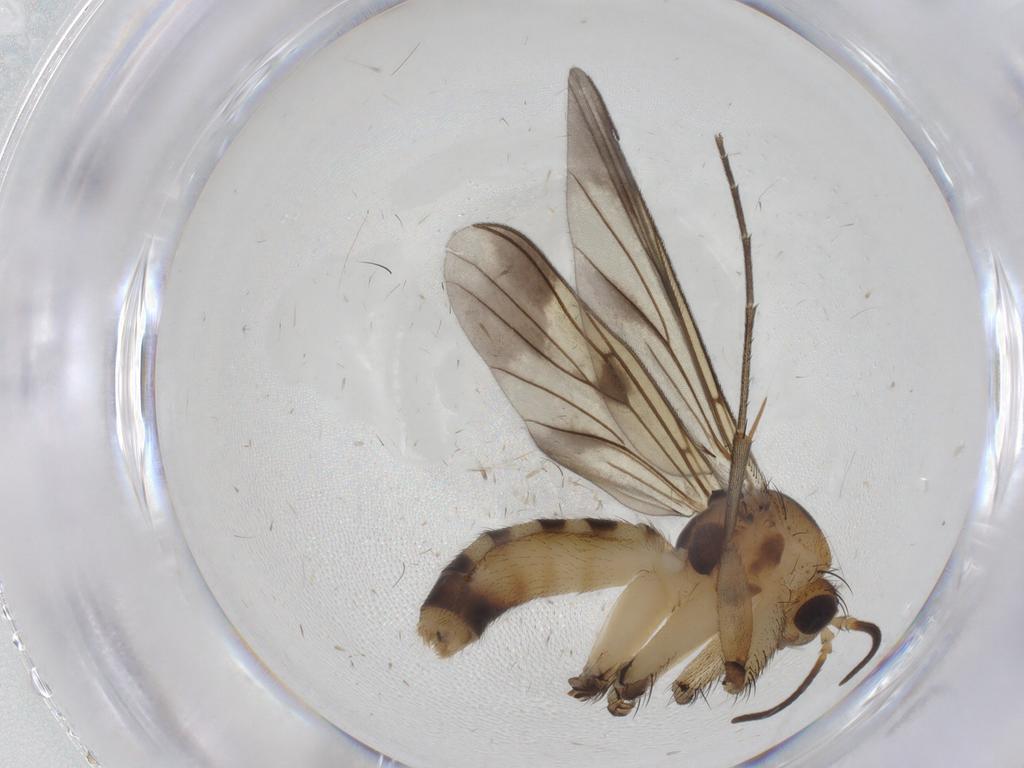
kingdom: Animalia
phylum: Arthropoda
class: Insecta
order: Diptera
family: Mycetophilidae
